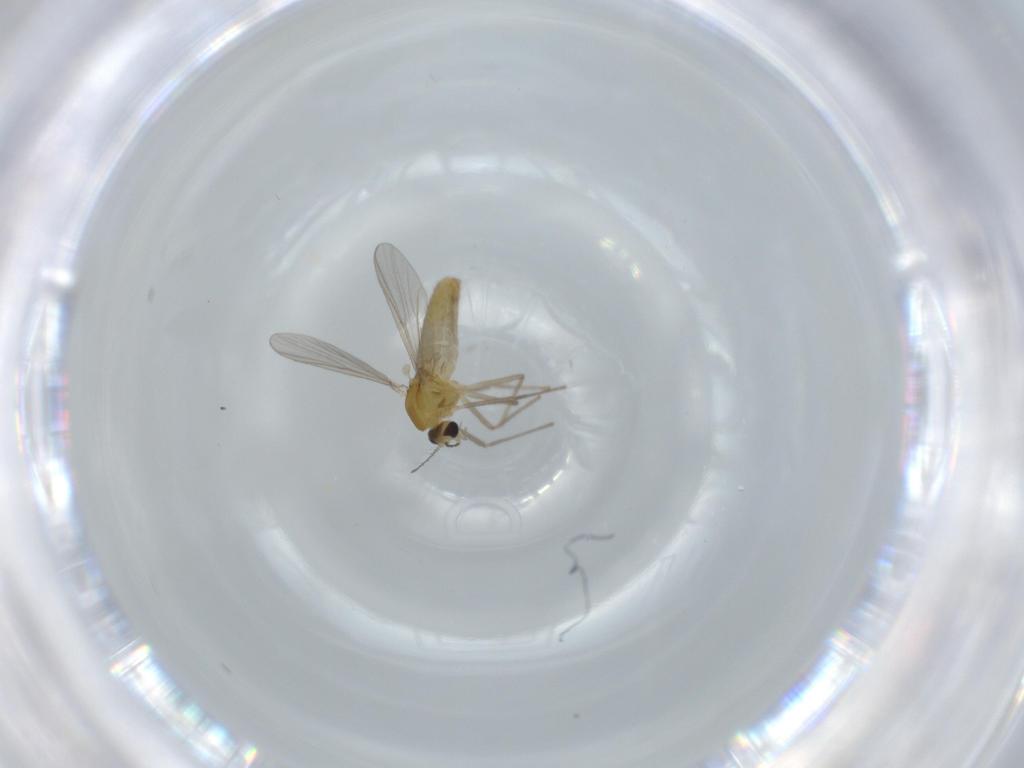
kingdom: Animalia
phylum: Arthropoda
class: Insecta
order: Diptera
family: Chironomidae
